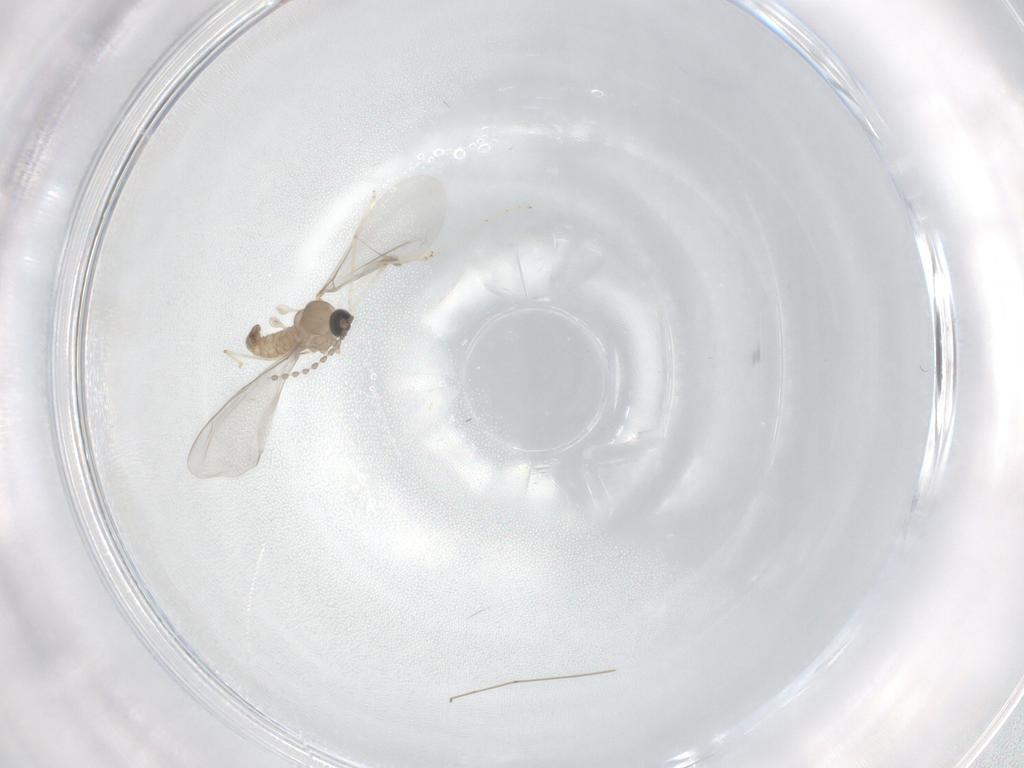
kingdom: Animalia
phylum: Arthropoda
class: Insecta
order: Diptera
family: Cecidomyiidae
